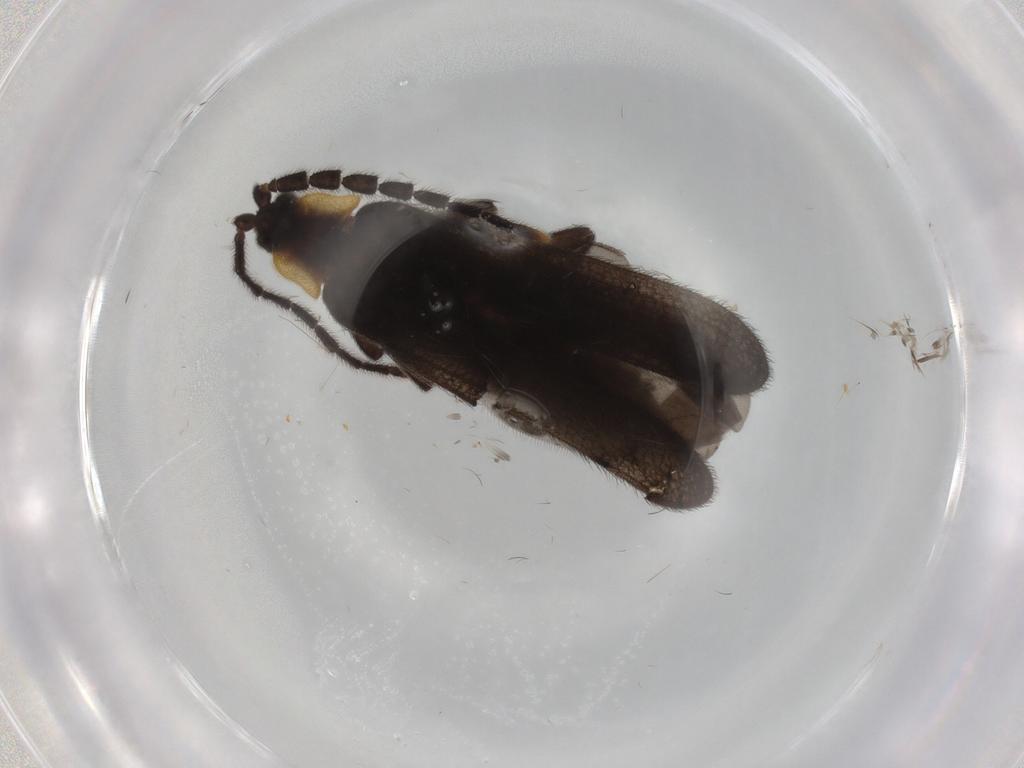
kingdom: Animalia
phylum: Arthropoda
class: Insecta
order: Coleoptera
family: Lycidae
